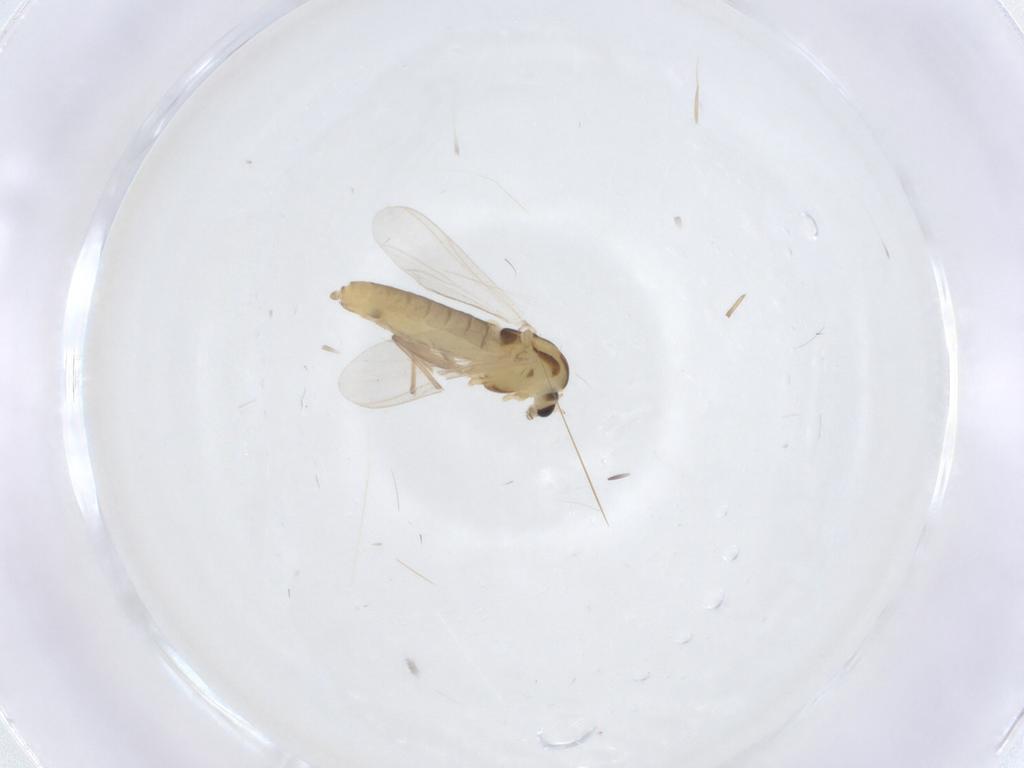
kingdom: Animalia
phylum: Arthropoda
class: Insecta
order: Diptera
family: Chironomidae
